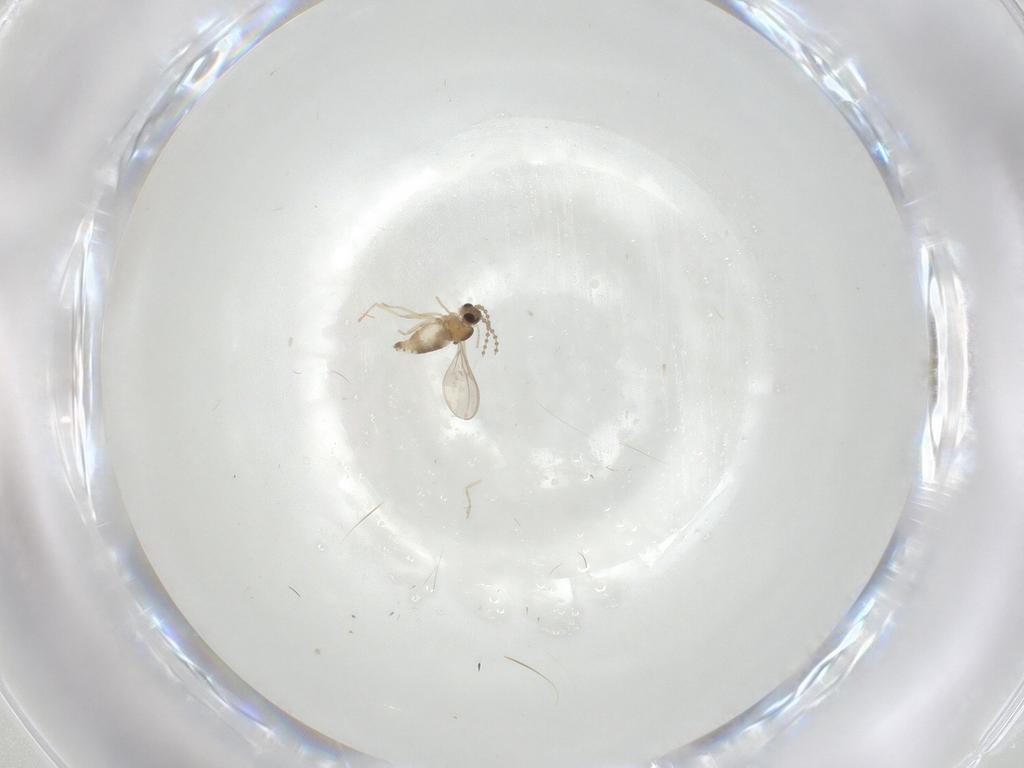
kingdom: Animalia
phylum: Arthropoda
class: Insecta
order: Diptera
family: Cecidomyiidae
